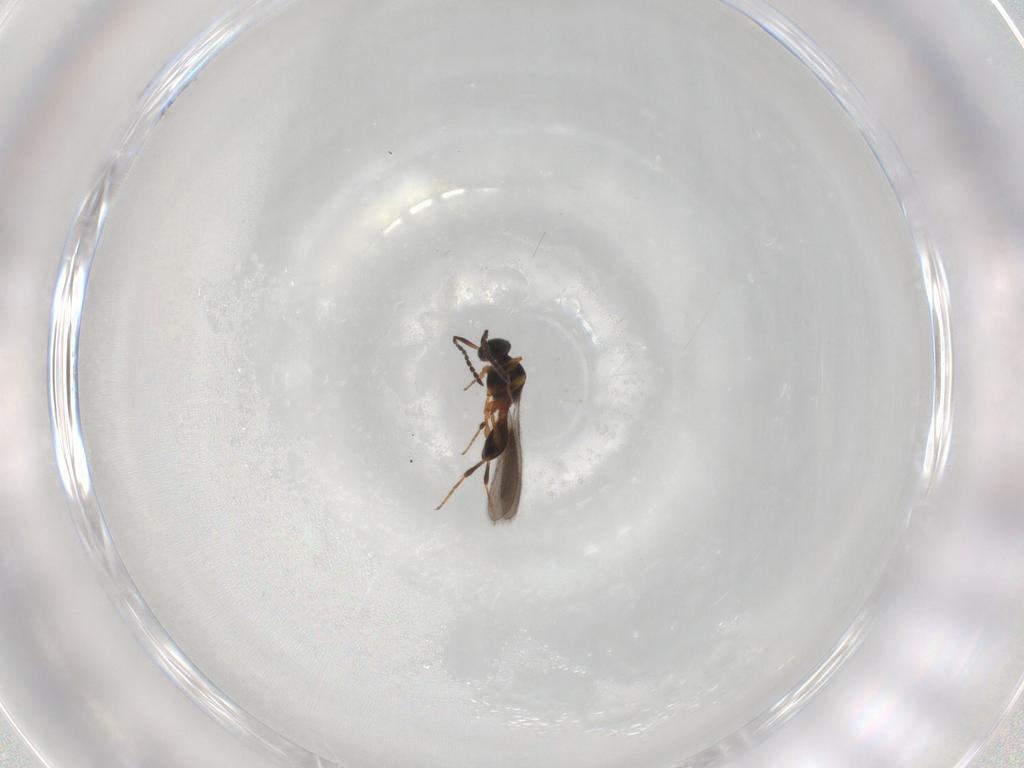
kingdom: Animalia
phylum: Arthropoda
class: Insecta
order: Hymenoptera
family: Platygastridae
